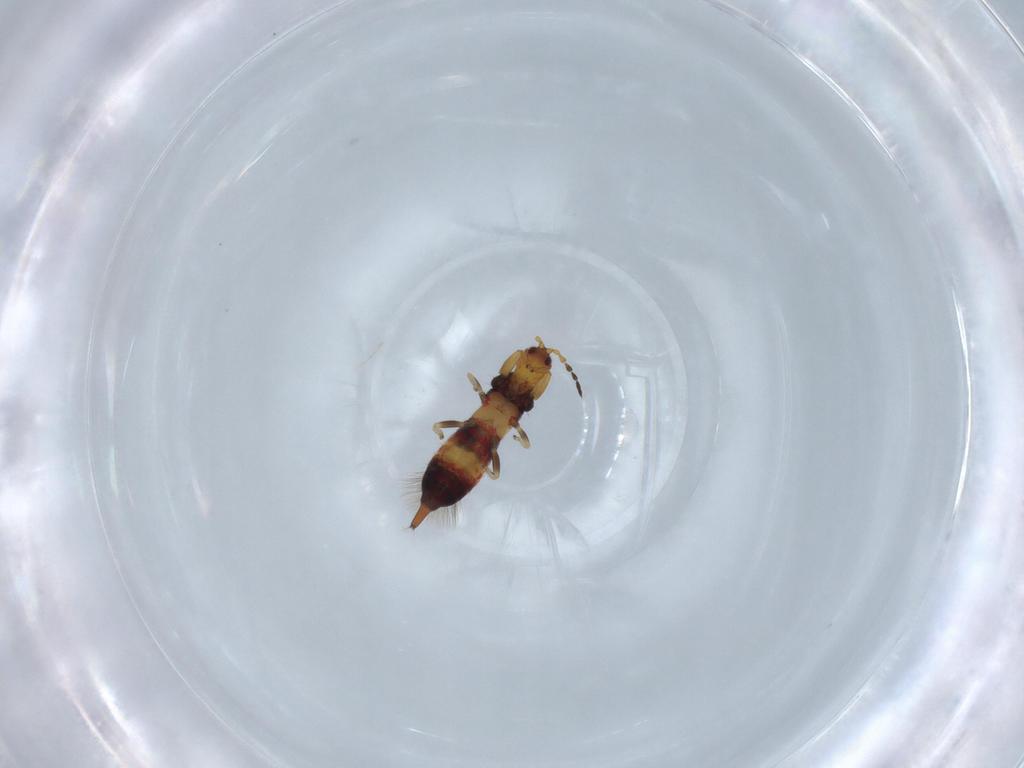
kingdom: Animalia
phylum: Arthropoda
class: Insecta
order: Thysanoptera
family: Phlaeothripidae
